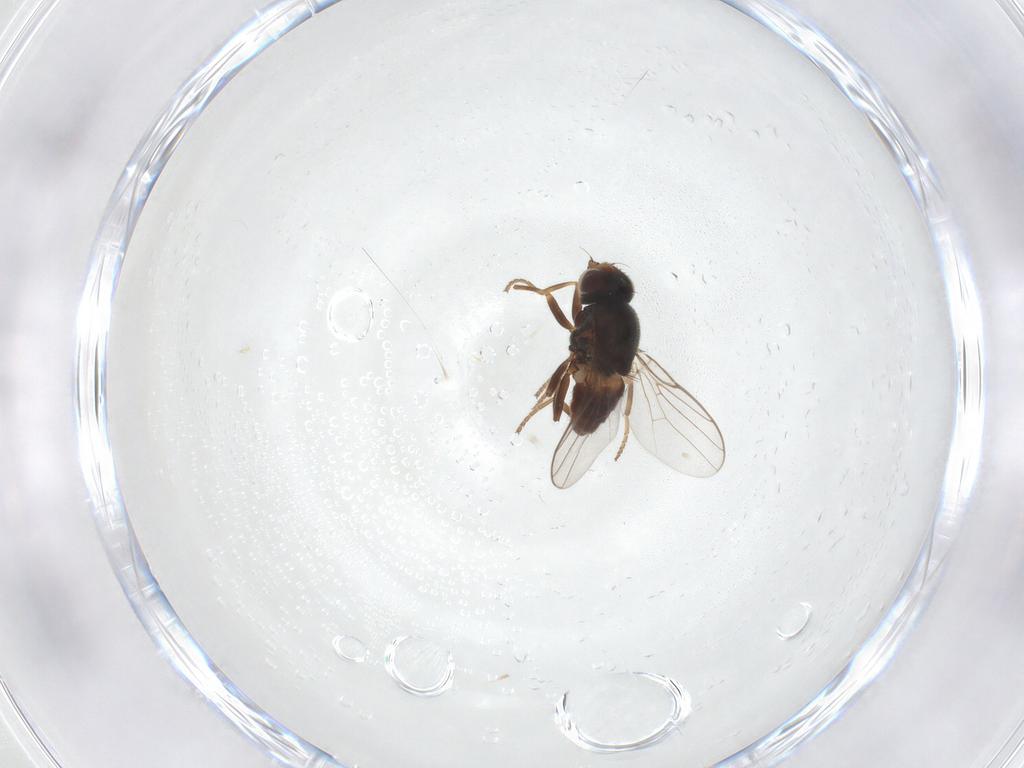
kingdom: Animalia
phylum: Arthropoda
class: Insecta
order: Diptera
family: Chloropidae
